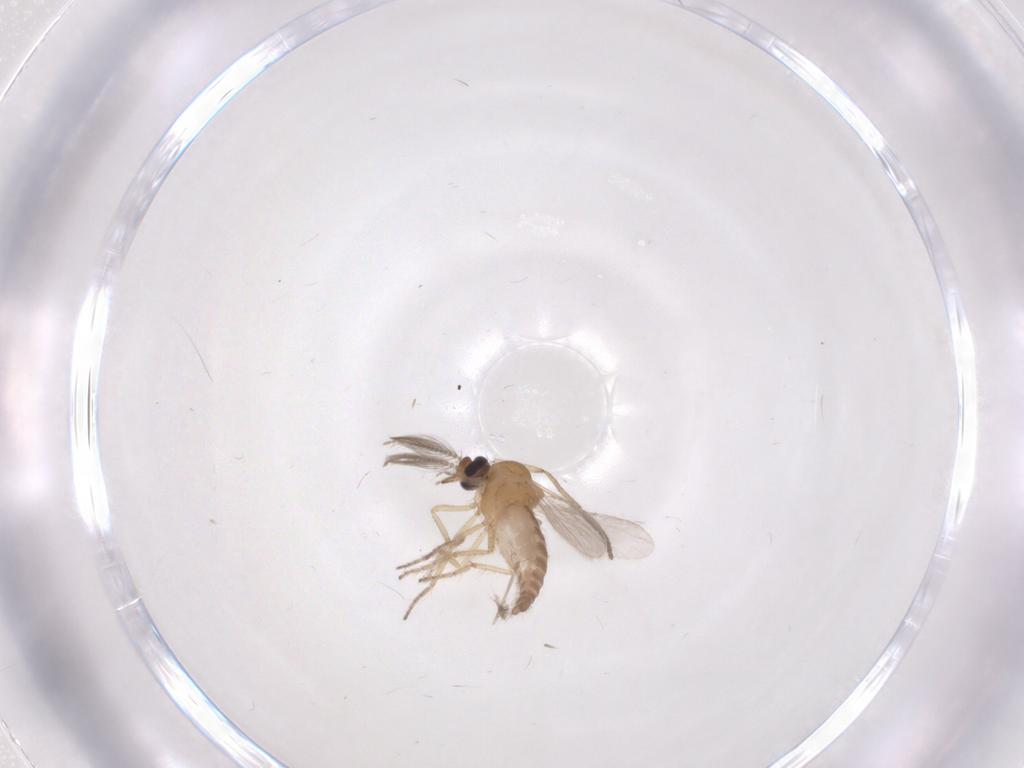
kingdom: Animalia
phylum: Arthropoda
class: Insecta
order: Diptera
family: Ceratopogonidae
